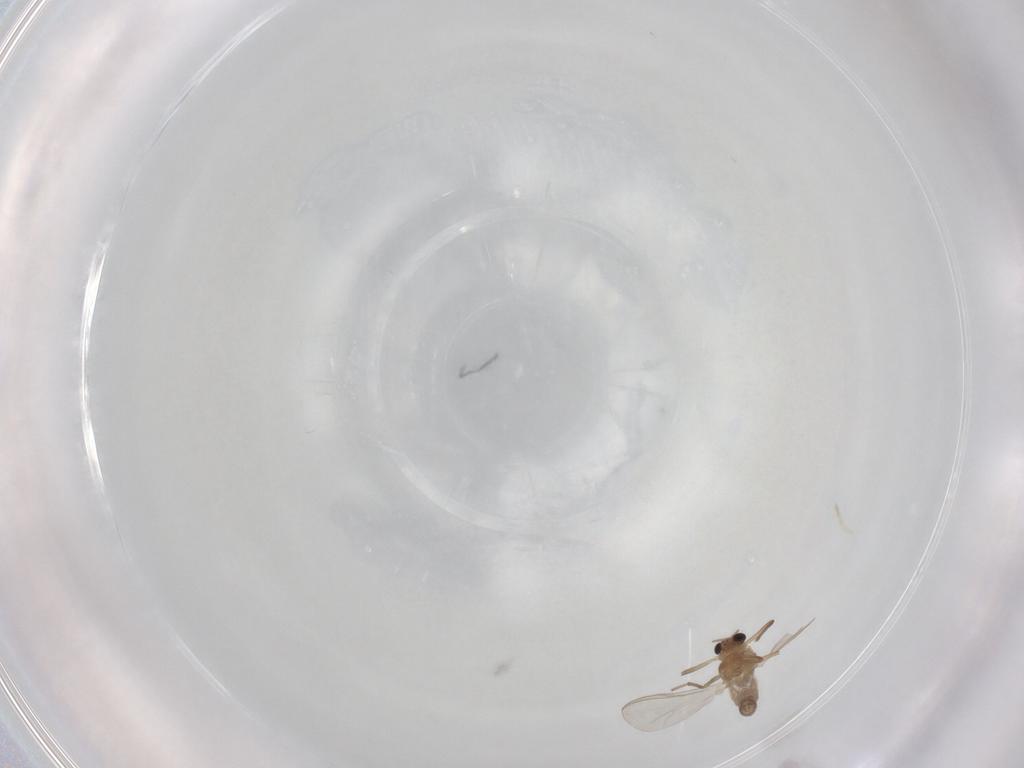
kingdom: Animalia
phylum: Arthropoda
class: Insecta
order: Diptera
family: Chironomidae
